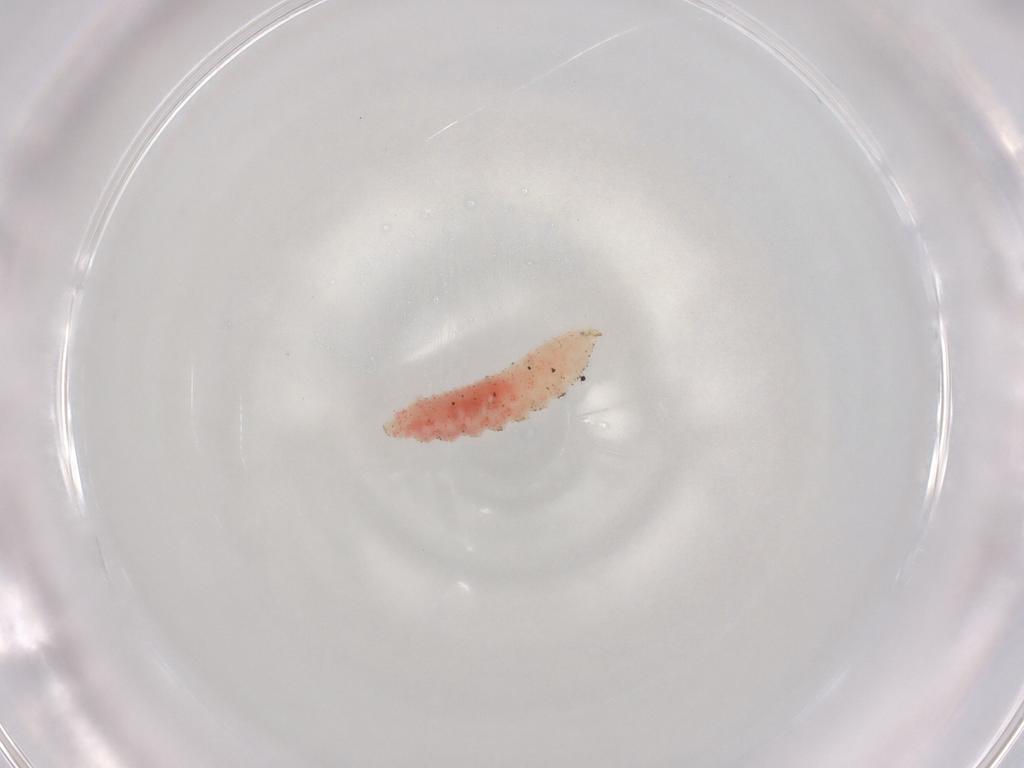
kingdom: Animalia
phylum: Arthropoda
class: Insecta
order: Diptera
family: Cecidomyiidae
